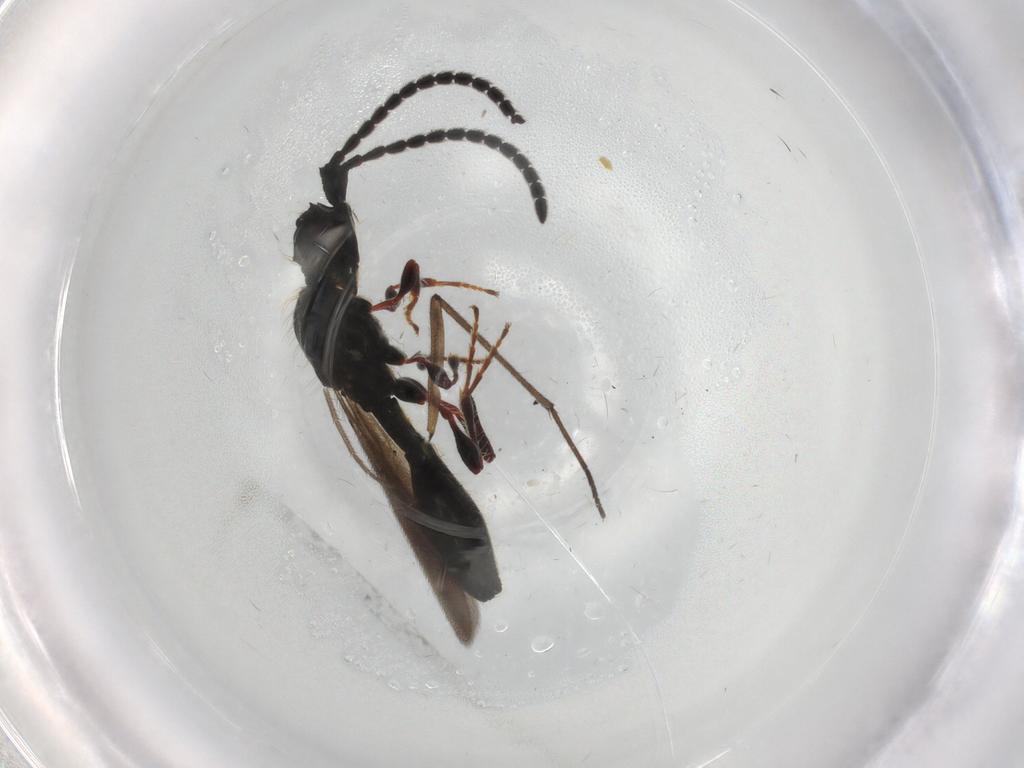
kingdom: Animalia
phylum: Arthropoda
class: Insecta
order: Hymenoptera
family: Diapriidae
